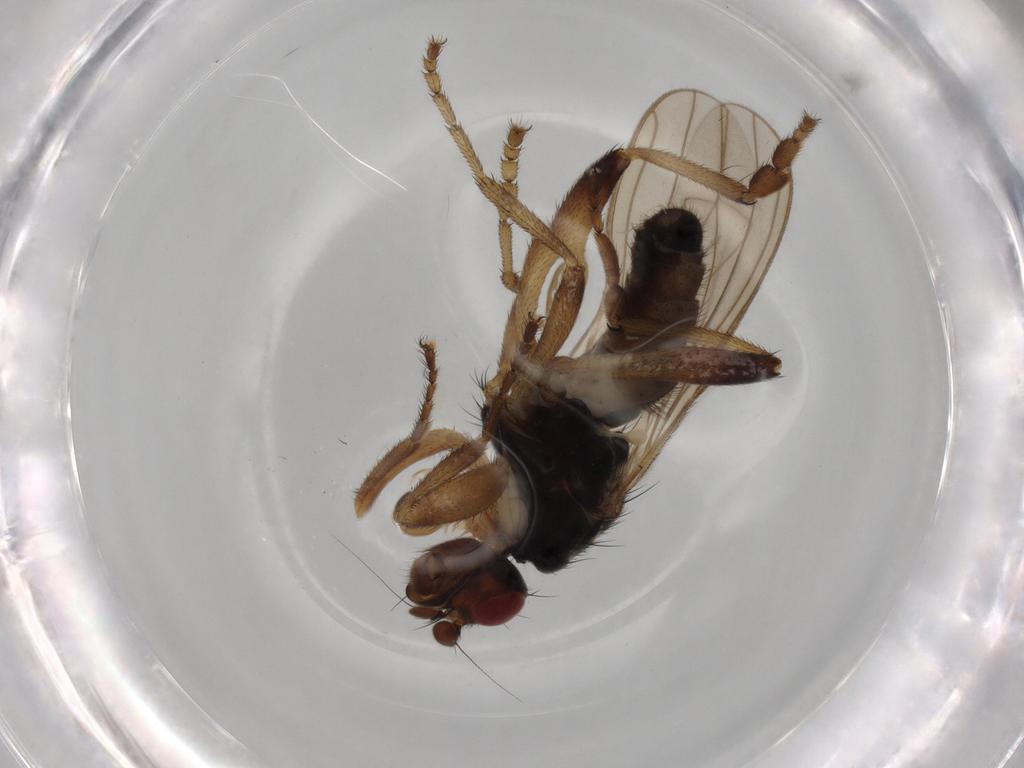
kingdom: Animalia
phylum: Arthropoda
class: Insecta
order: Diptera
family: Sphaeroceridae
